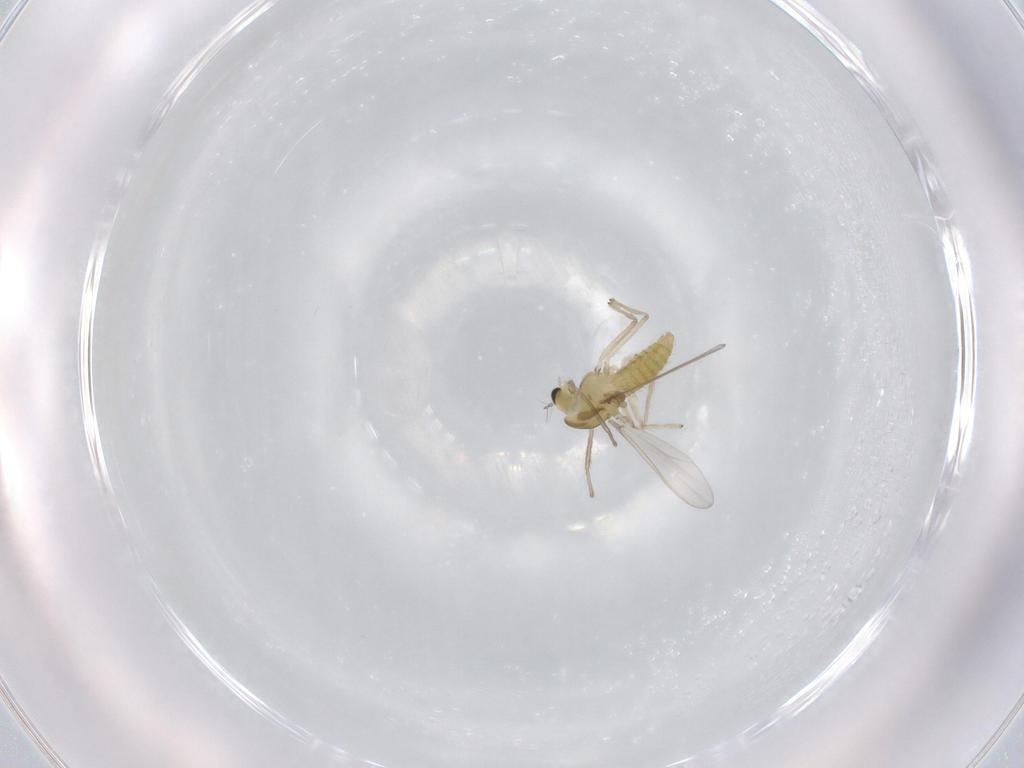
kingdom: Animalia
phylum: Arthropoda
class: Insecta
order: Diptera
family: Chironomidae
